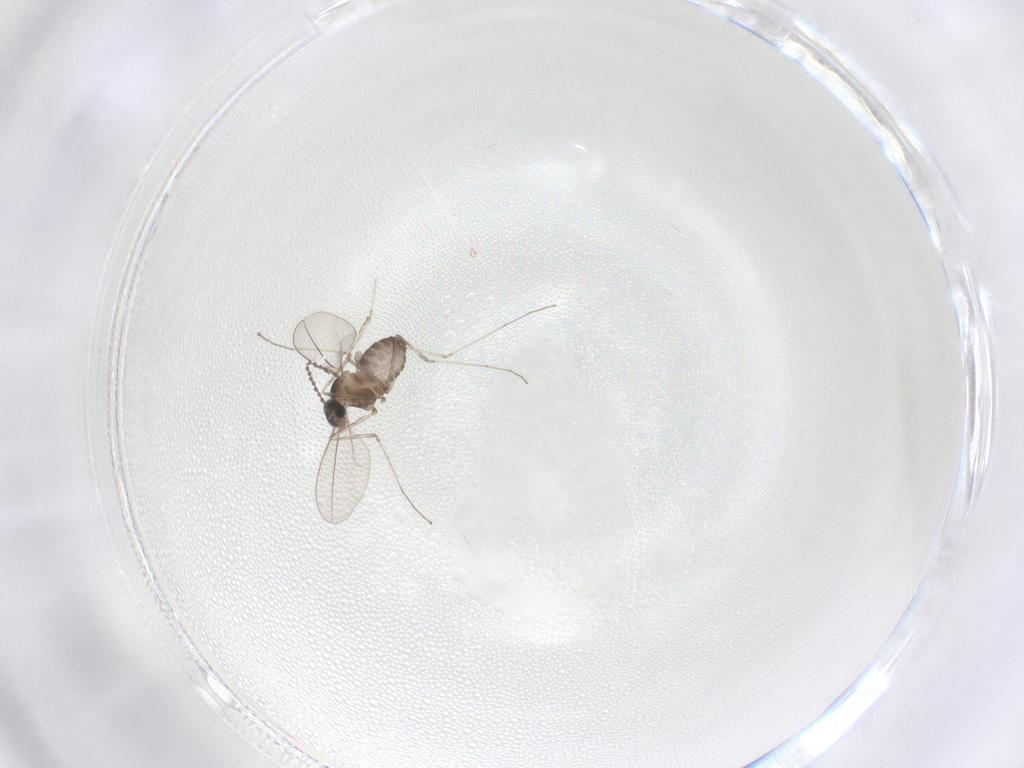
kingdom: Animalia
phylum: Arthropoda
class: Insecta
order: Diptera
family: Cecidomyiidae
